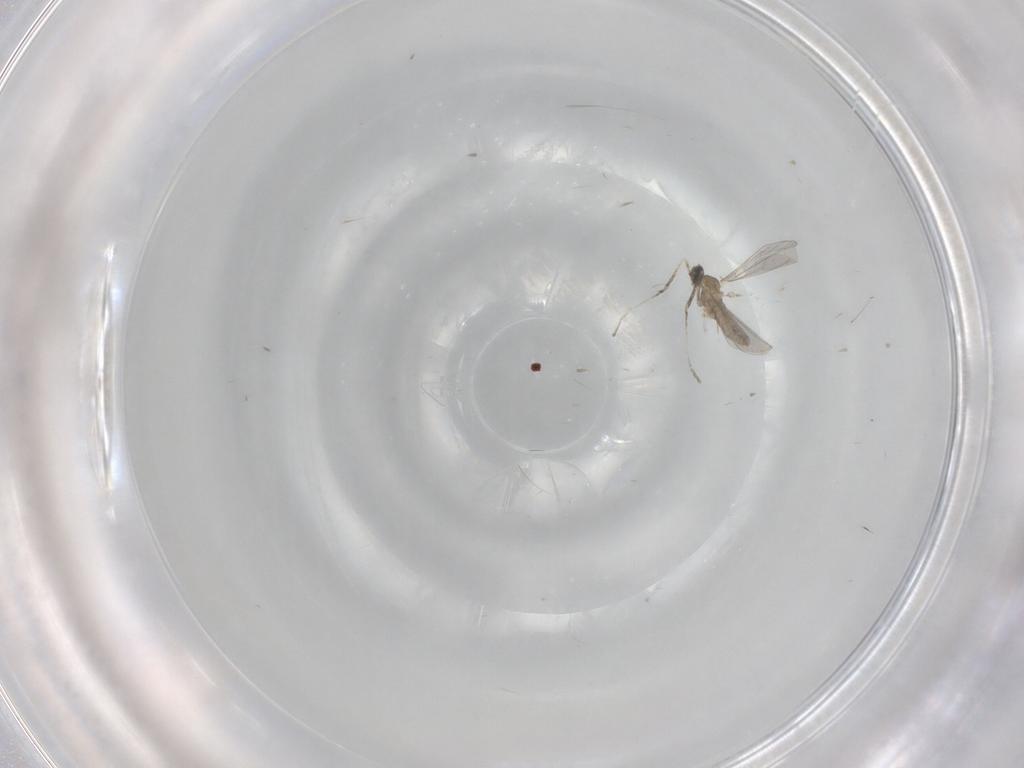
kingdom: Animalia
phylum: Arthropoda
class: Insecta
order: Diptera
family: Cecidomyiidae
